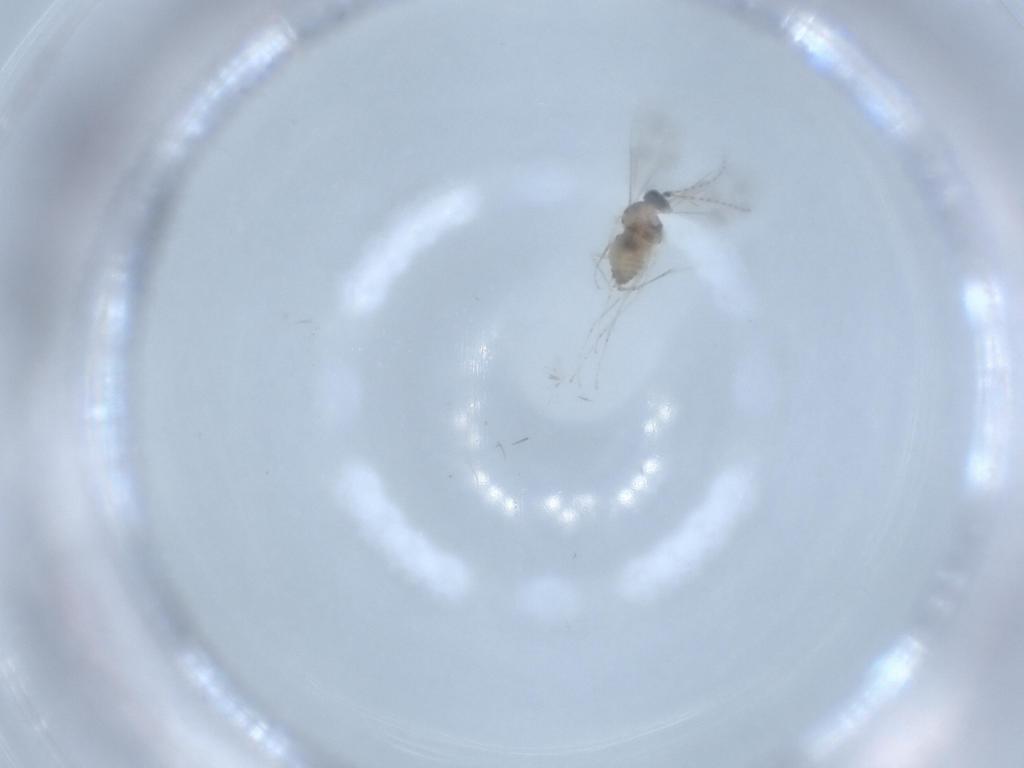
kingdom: Animalia
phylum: Arthropoda
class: Insecta
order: Diptera
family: Cecidomyiidae
